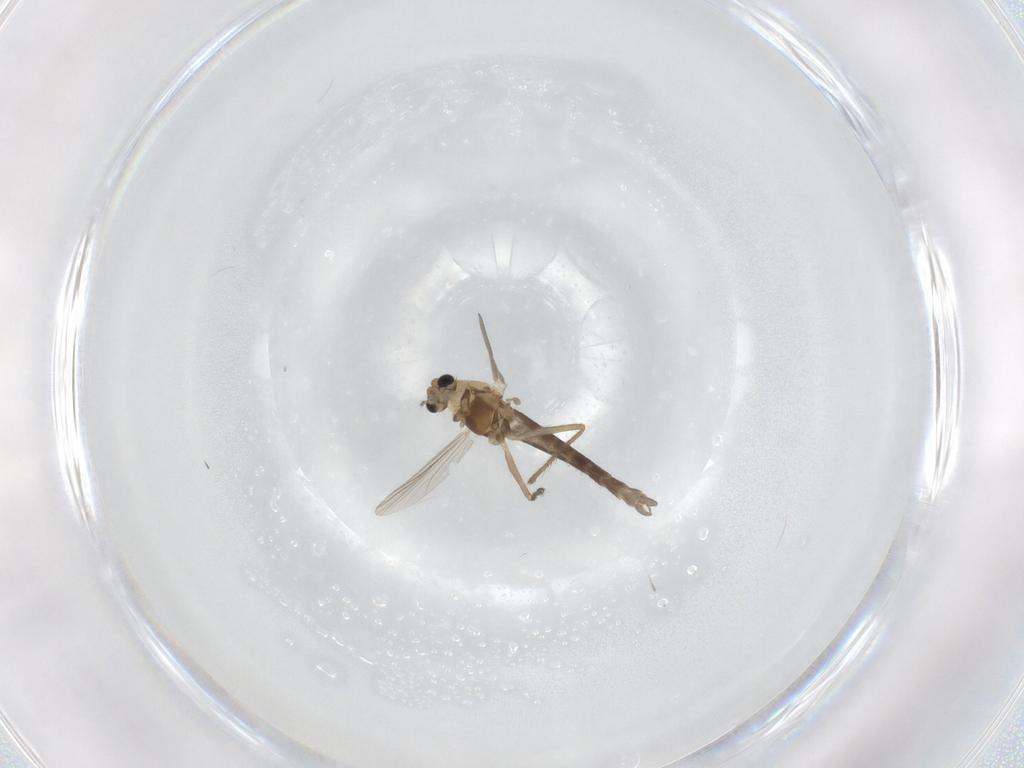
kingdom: Animalia
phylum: Arthropoda
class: Insecta
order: Diptera
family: Chironomidae
